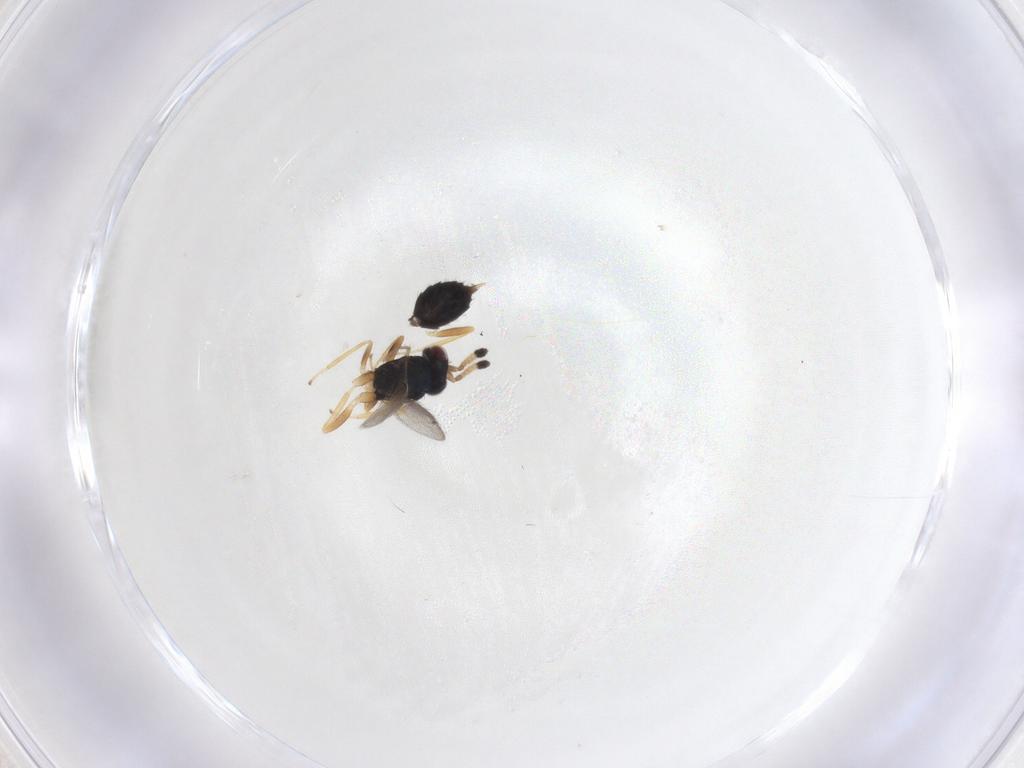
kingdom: Animalia
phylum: Arthropoda
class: Insecta
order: Hymenoptera
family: Eulophidae
